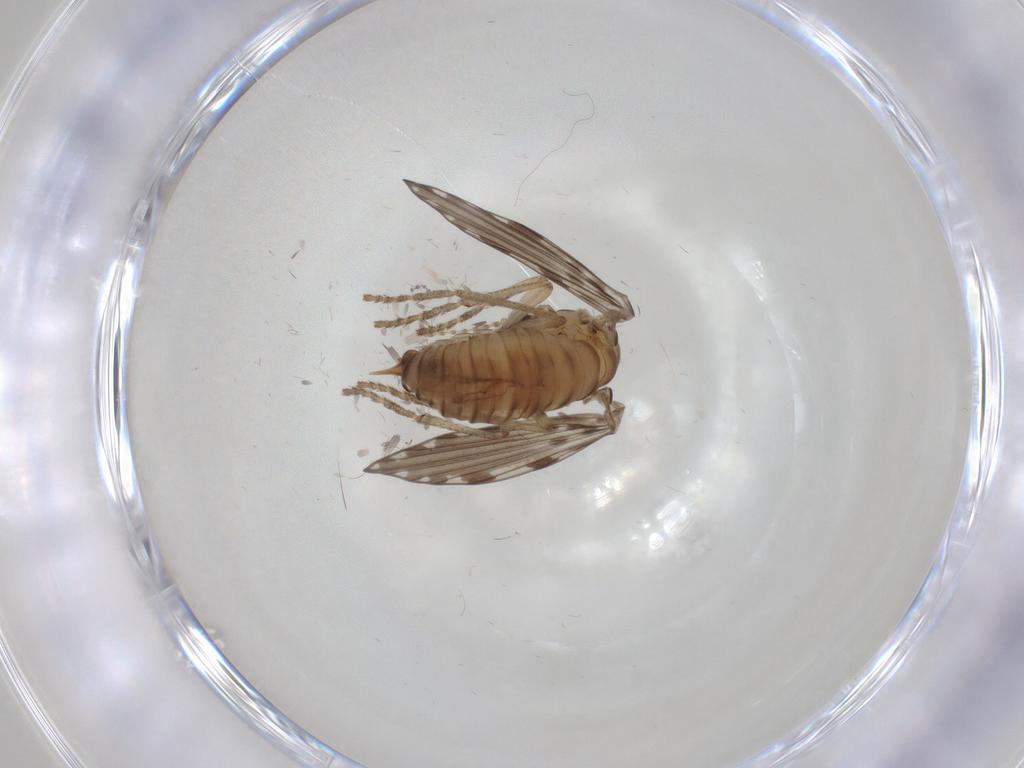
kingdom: Animalia
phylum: Arthropoda
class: Insecta
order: Diptera
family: Psychodidae
